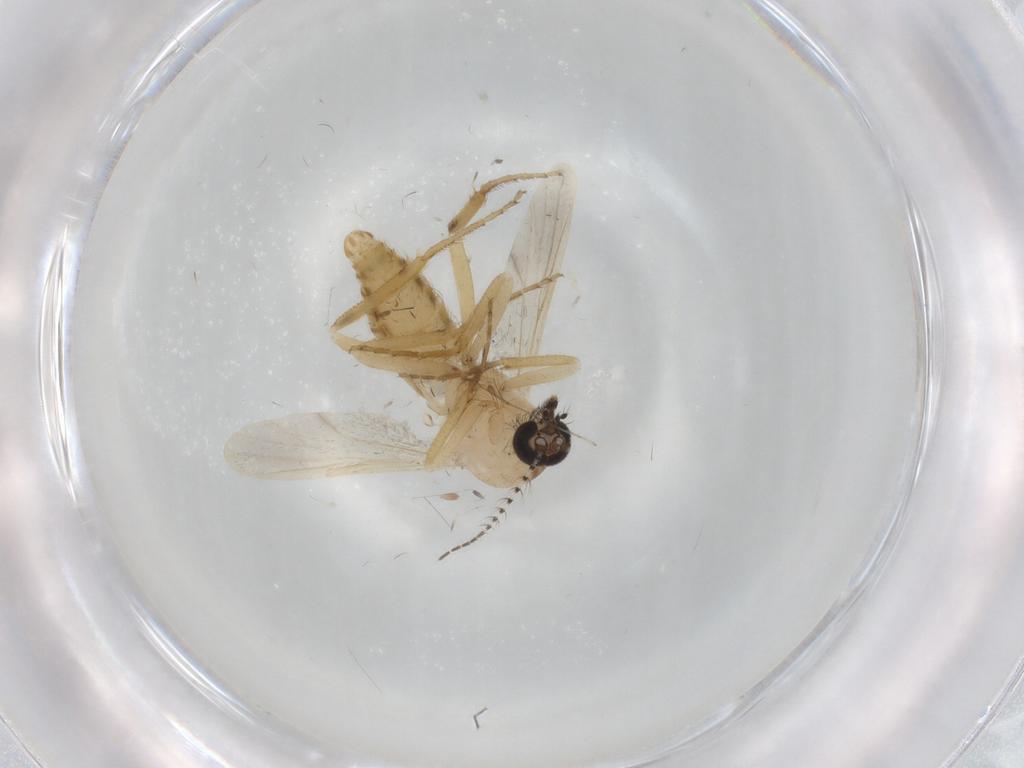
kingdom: Animalia
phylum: Arthropoda
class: Insecta
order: Diptera
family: Ceratopogonidae
